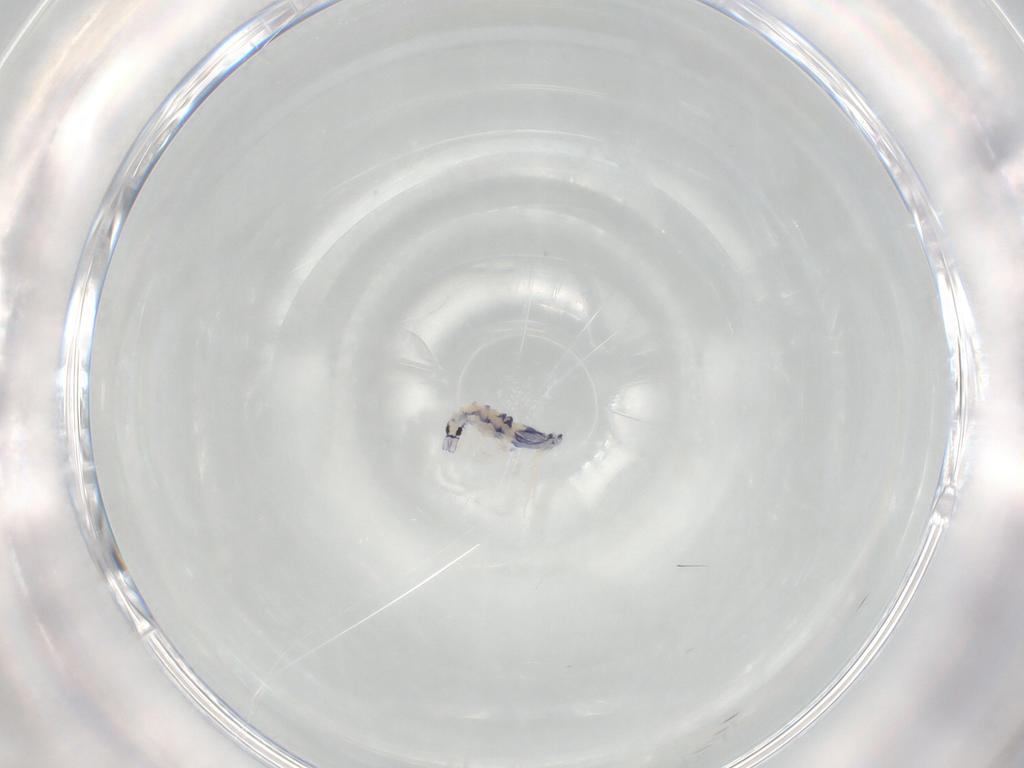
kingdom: Animalia
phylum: Arthropoda
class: Collembola
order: Entomobryomorpha
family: Entomobryidae
